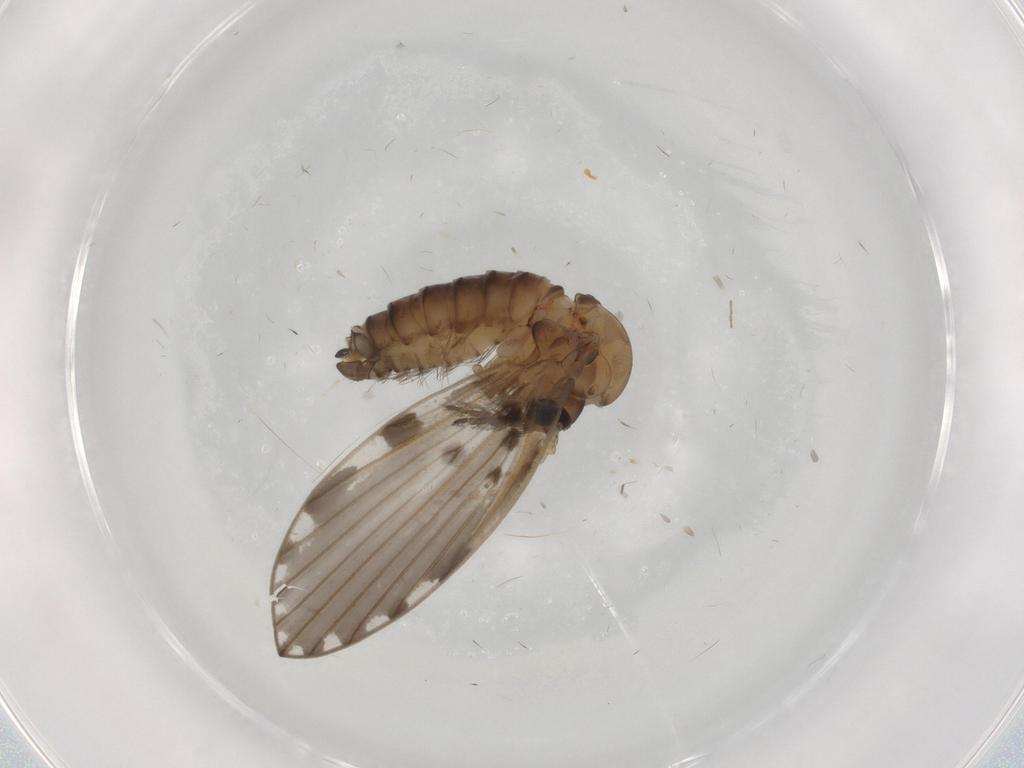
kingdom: Animalia
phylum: Arthropoda
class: Insecta
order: Diptera
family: Psychodidae
